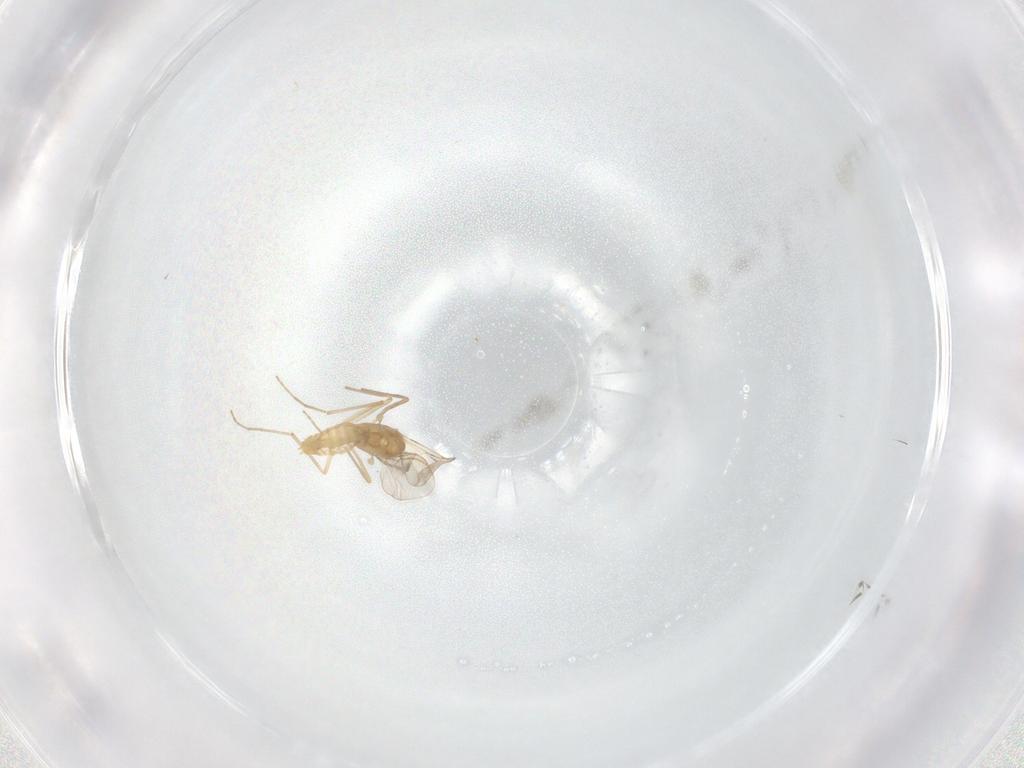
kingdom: Animalia
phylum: Arthropoda
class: Insecta
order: Diptera
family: Chironomidae
